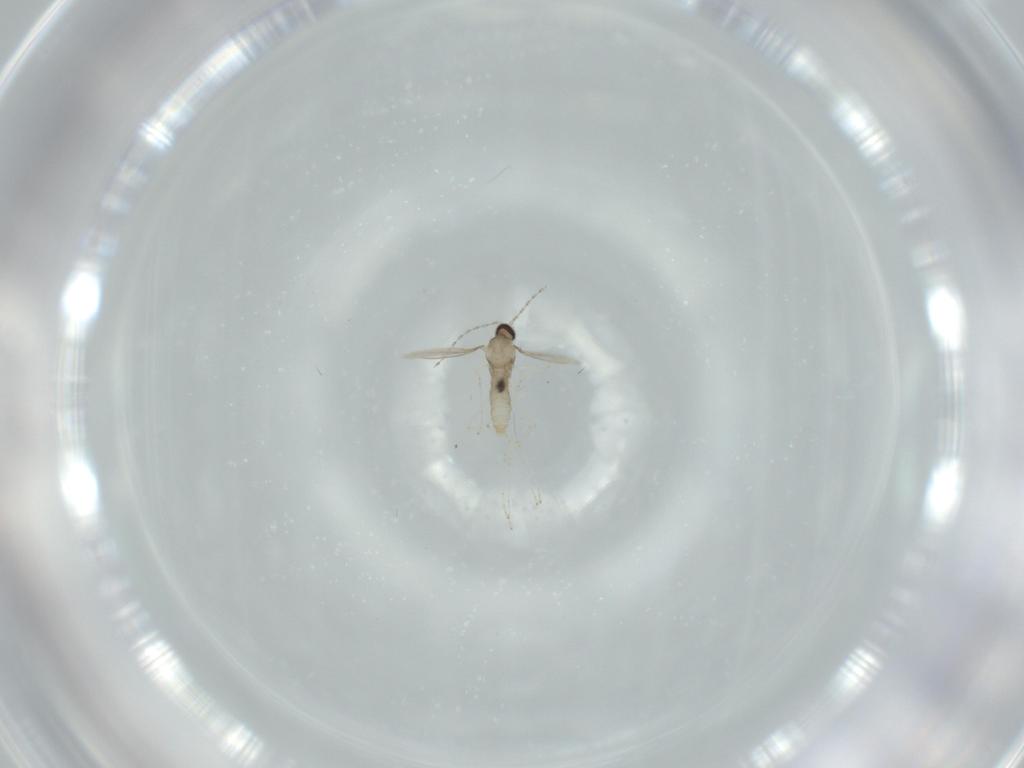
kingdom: Animalia
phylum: Arthropoda
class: Insecta
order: Diptera
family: Cecidomyiidae
